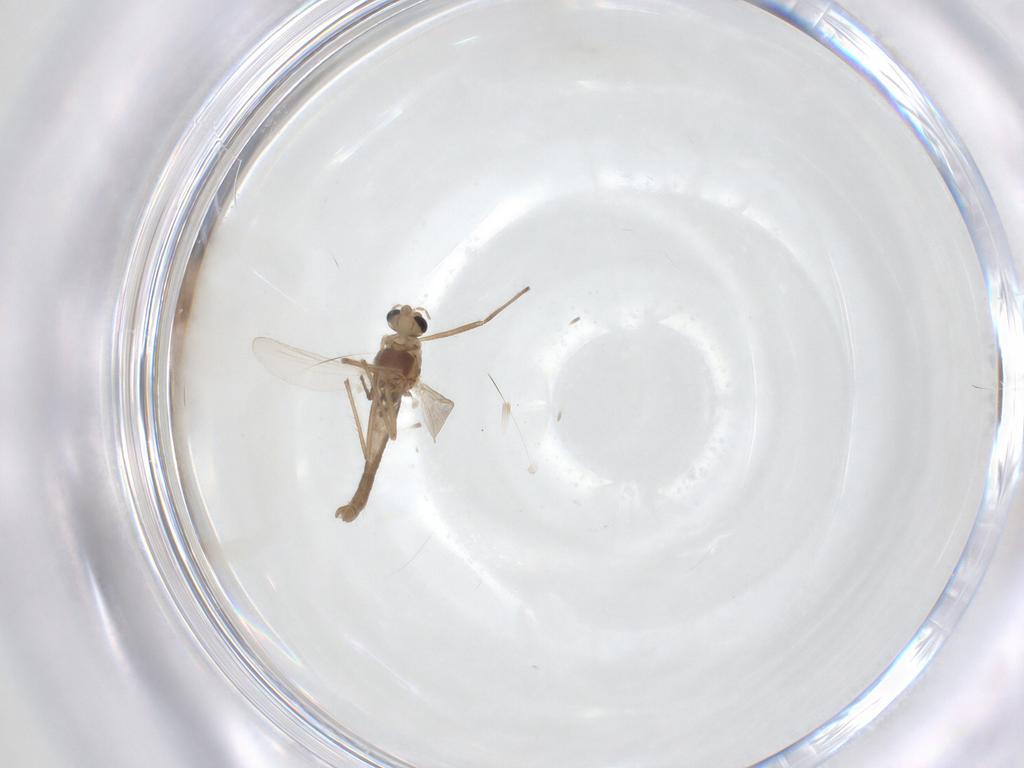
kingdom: Animalia
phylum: Arthropoda
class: Insecta
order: Diptera
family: Chironomidae
